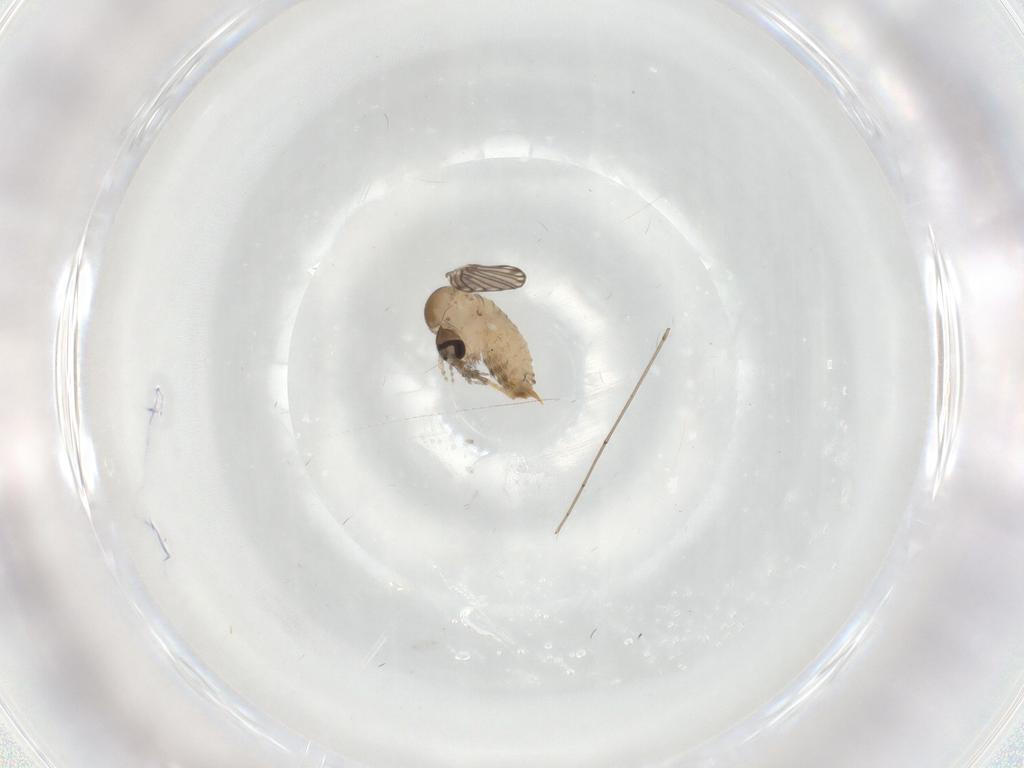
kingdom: Animalia
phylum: Arthropoda
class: Insecta
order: Diptera
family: Psychodidae
